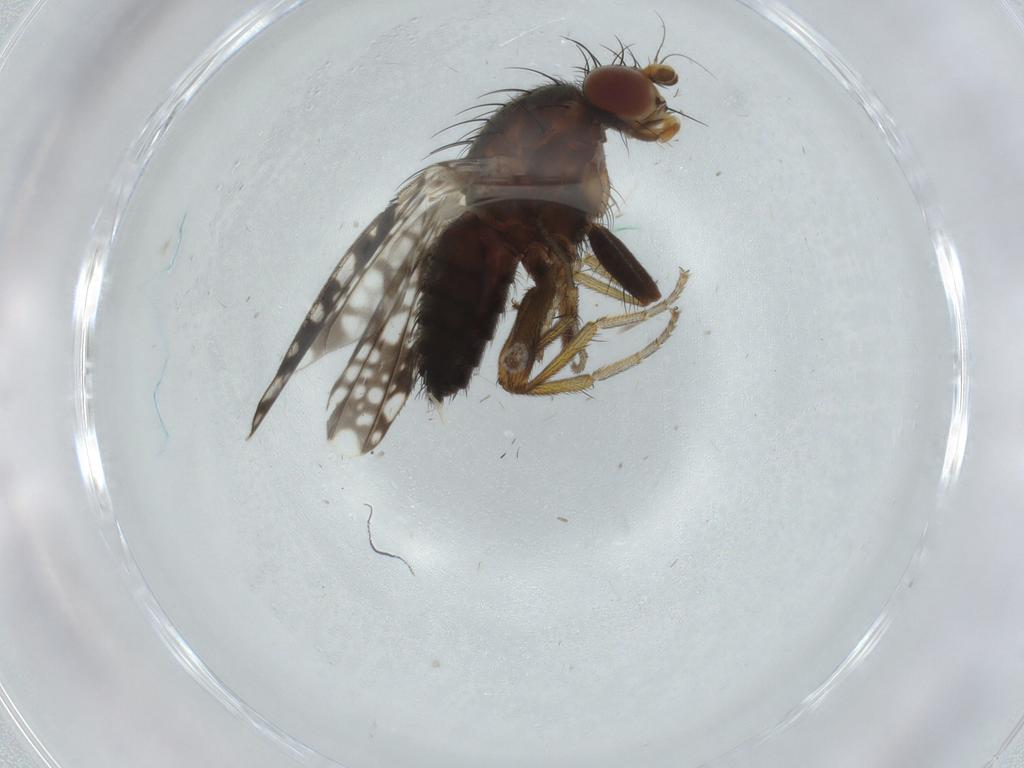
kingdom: Animalia
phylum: Arthropoda
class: Insecta
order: Diptera
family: Tephritidae
